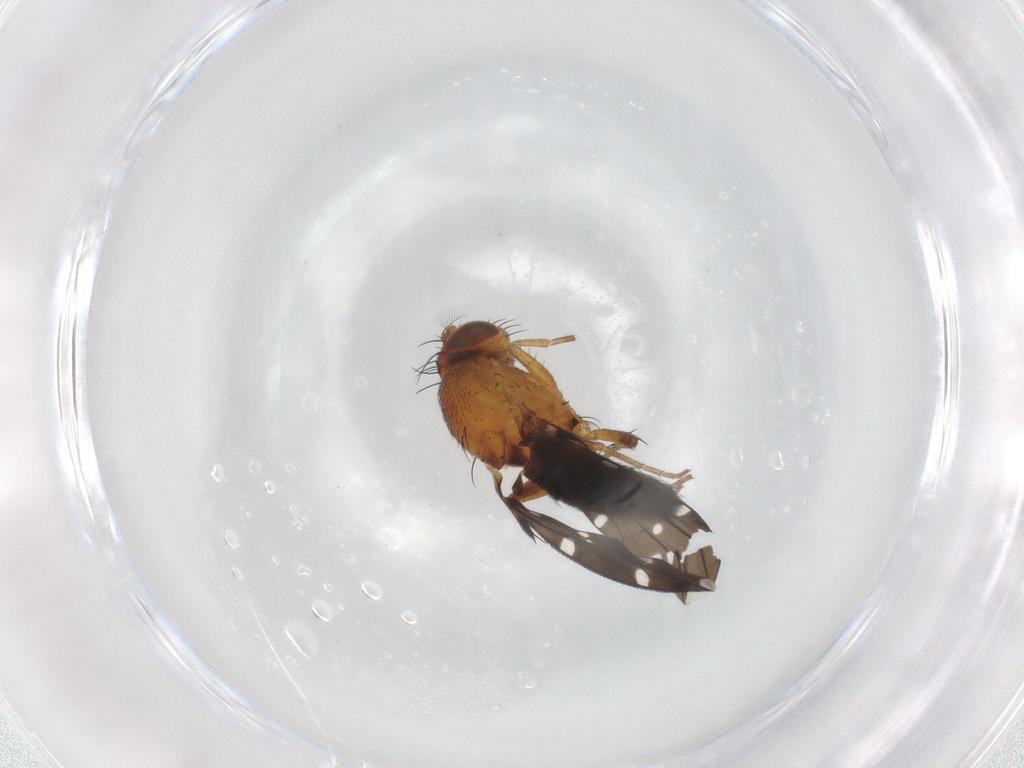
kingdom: Animalia
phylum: Arthropoda
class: Insecta
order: Diptera
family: Ephydridae
